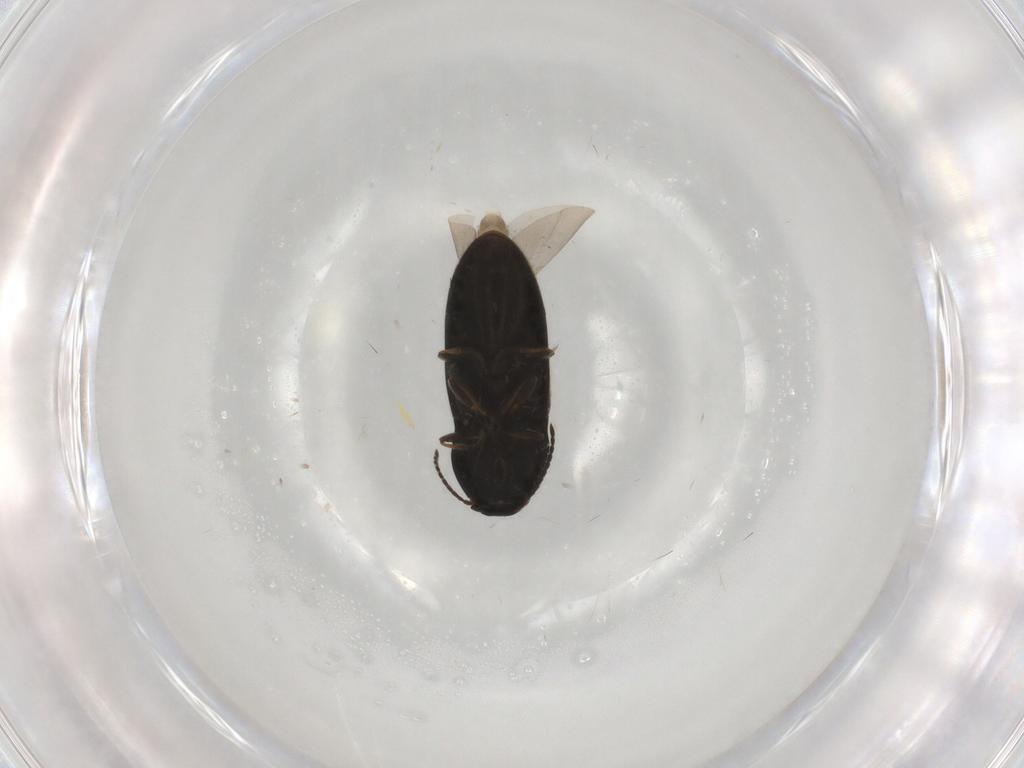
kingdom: Animalia
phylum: Arthropoda
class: Insecta
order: Coleoptera
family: Elateridae
